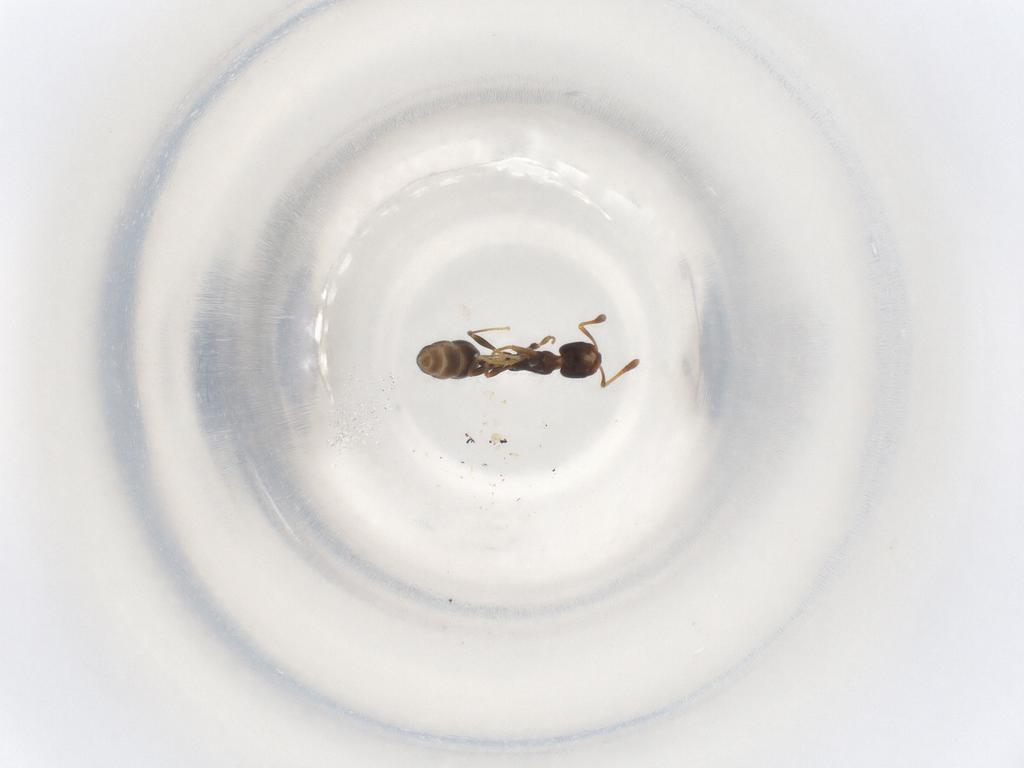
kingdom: Animalia
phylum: Arthropoda
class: Insecta
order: Hymenoptera
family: Formicidae
